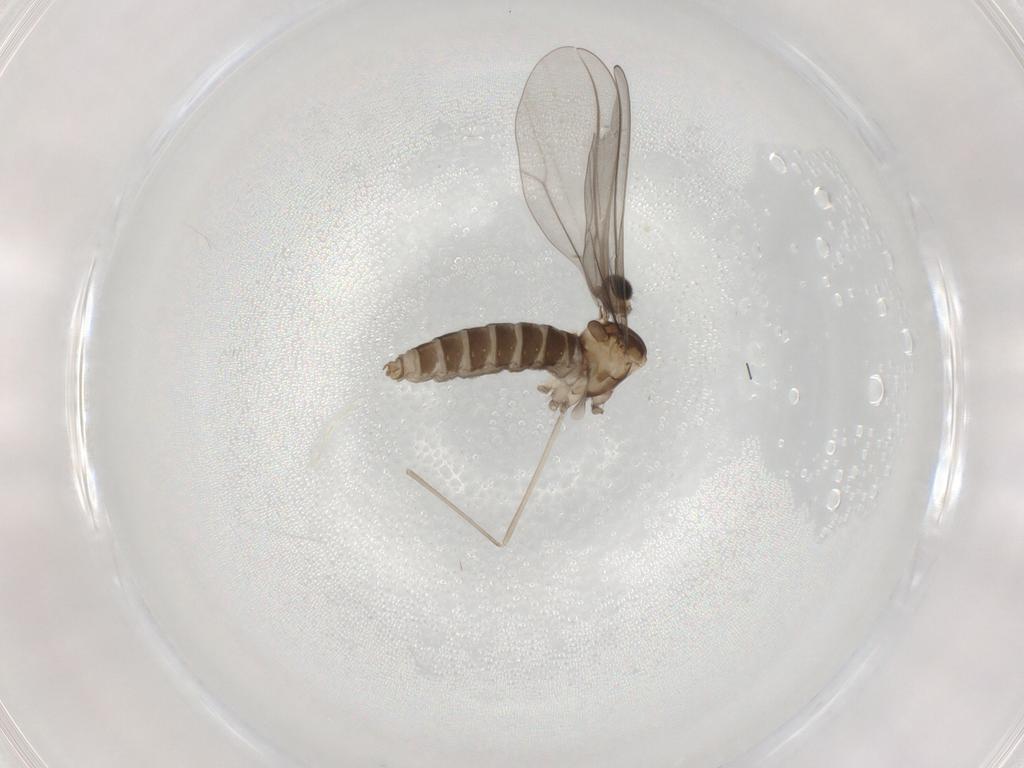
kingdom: Animalia
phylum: Arthropoda
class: Insecta
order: Diptera
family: Cecidomyiidae
